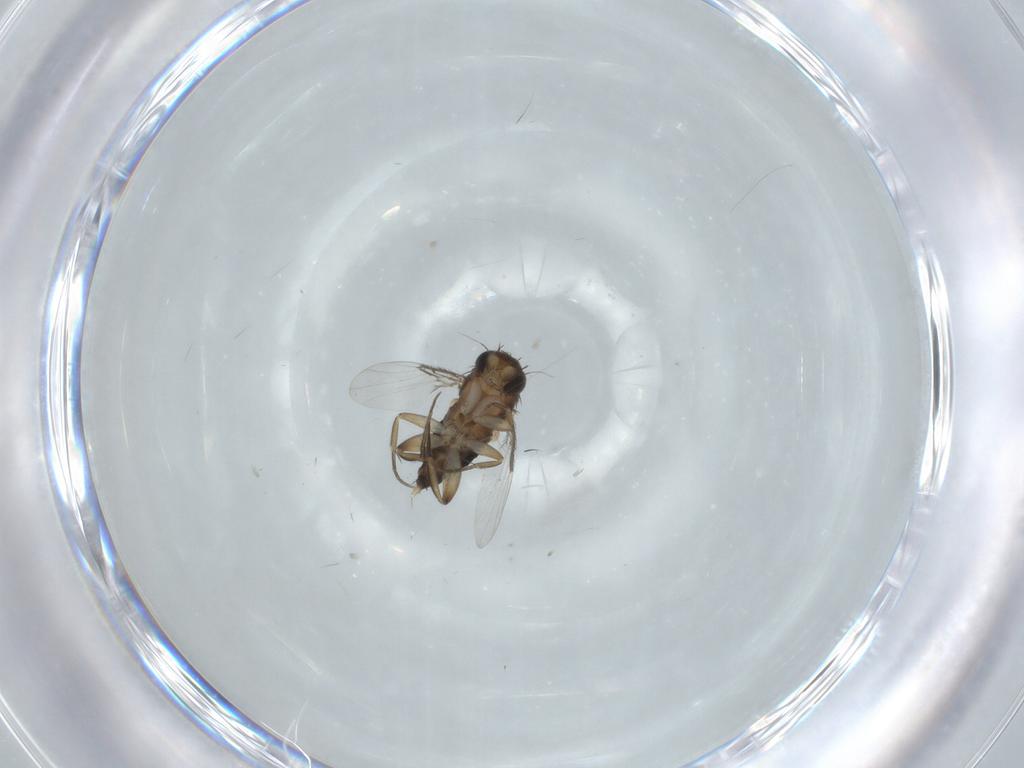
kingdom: Animalia
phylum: Arthropoda
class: Insecta
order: Diptera
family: Phoridae
